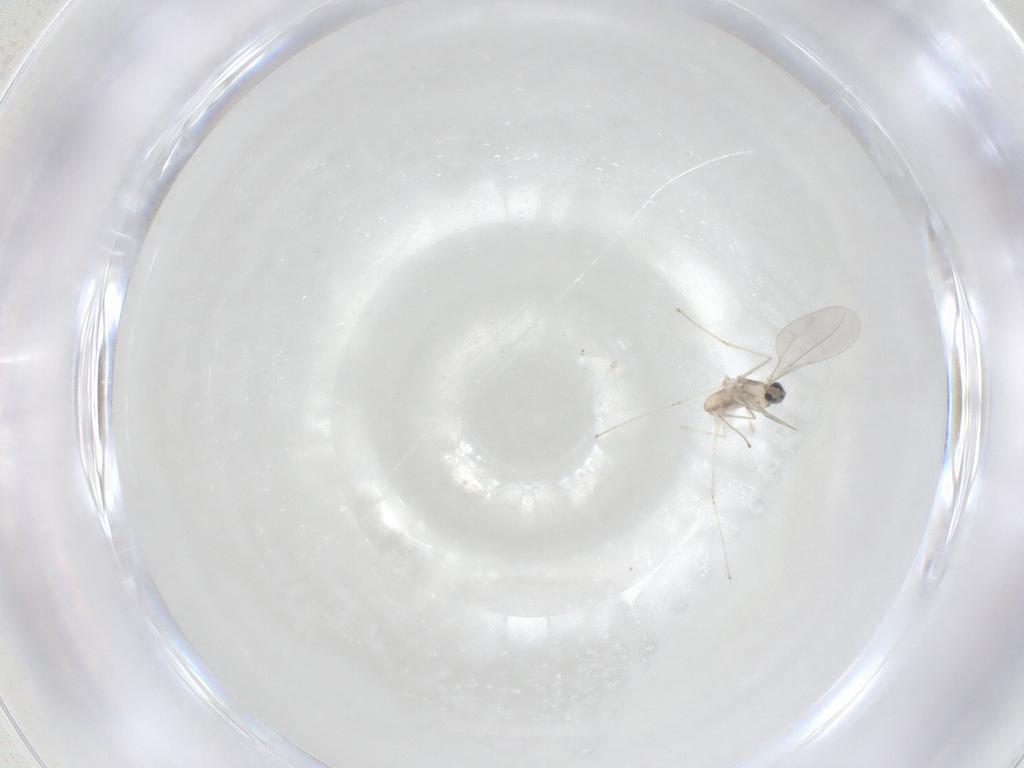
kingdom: Animalia
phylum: Arthropoda
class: Insecta
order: Diptera
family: Cecidomyiidae
